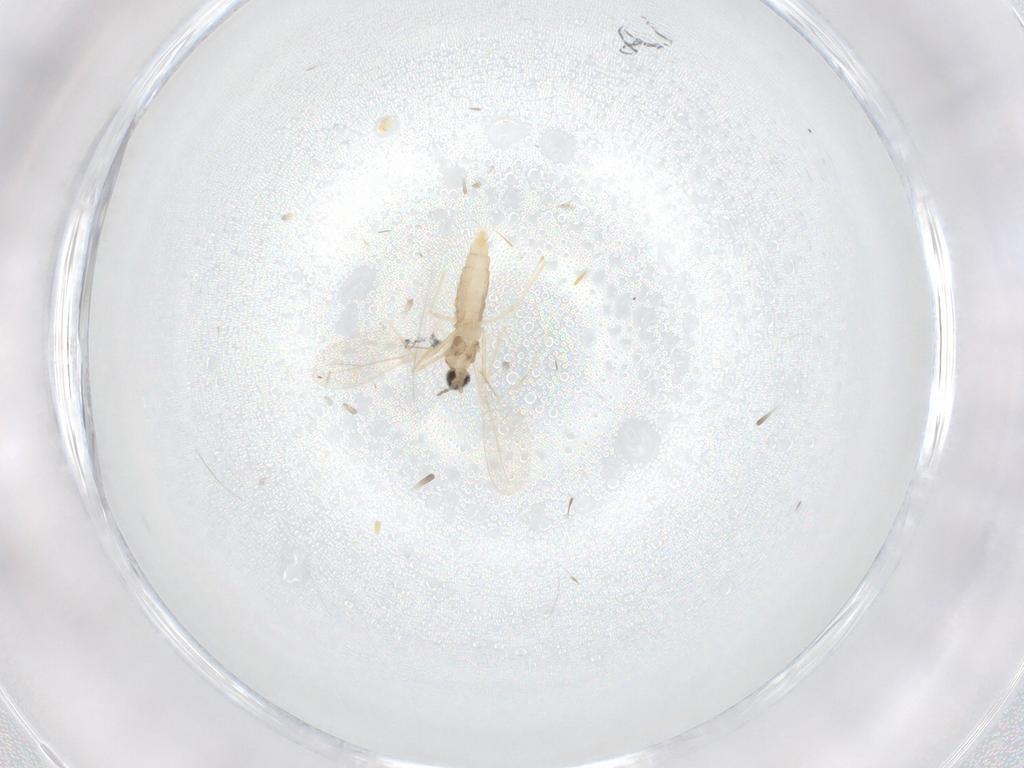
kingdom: Animalia
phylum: Arthropoda
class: Insecta
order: Diptera
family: Cecidomyiidae
